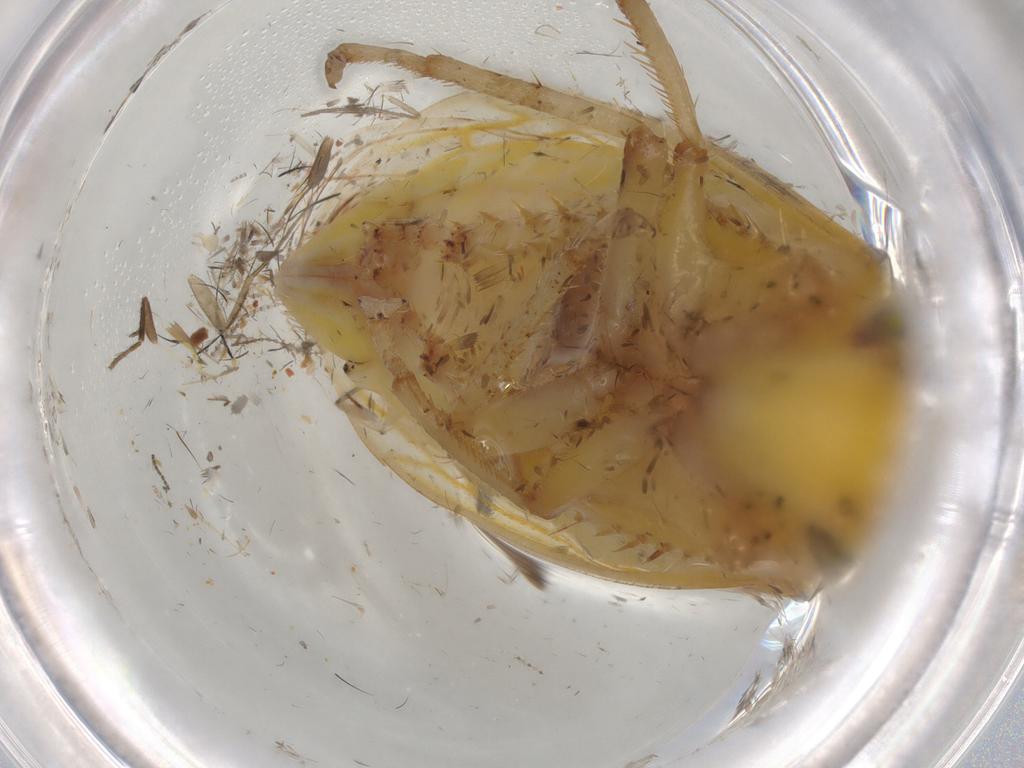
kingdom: Animalia
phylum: Arthropoda
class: Insecta
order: Hemiptera
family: Cicadellidae
